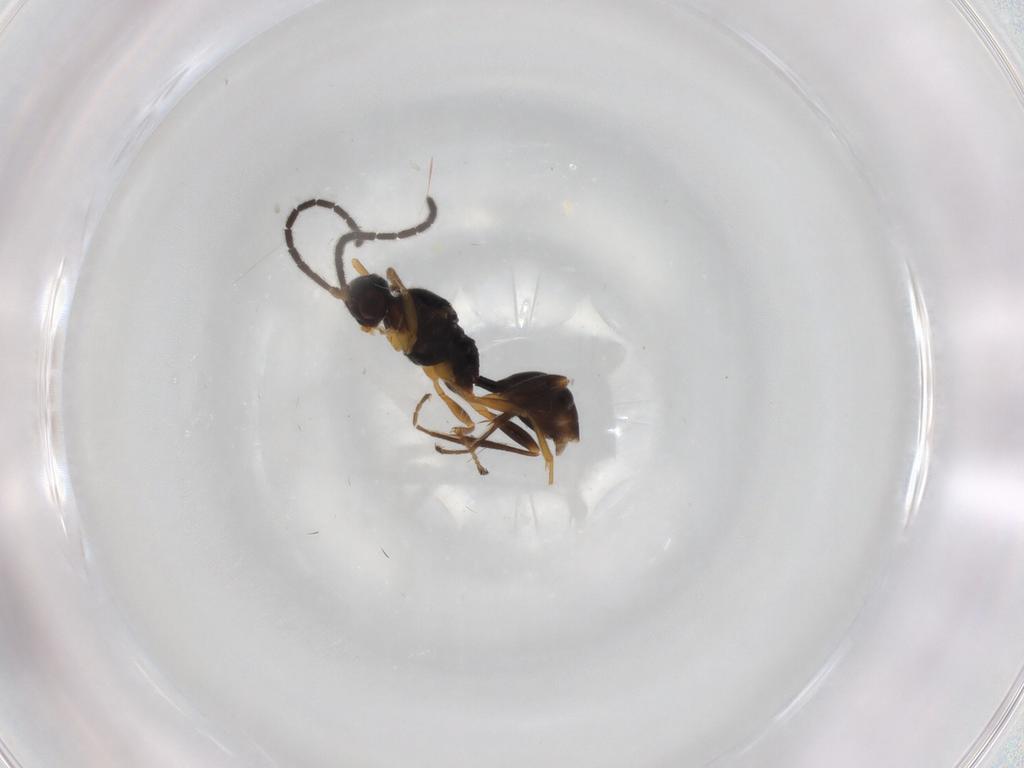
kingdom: Animalia
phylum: Arthropoda
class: Insecta
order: Hymenoptera
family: Proctotrupidae
